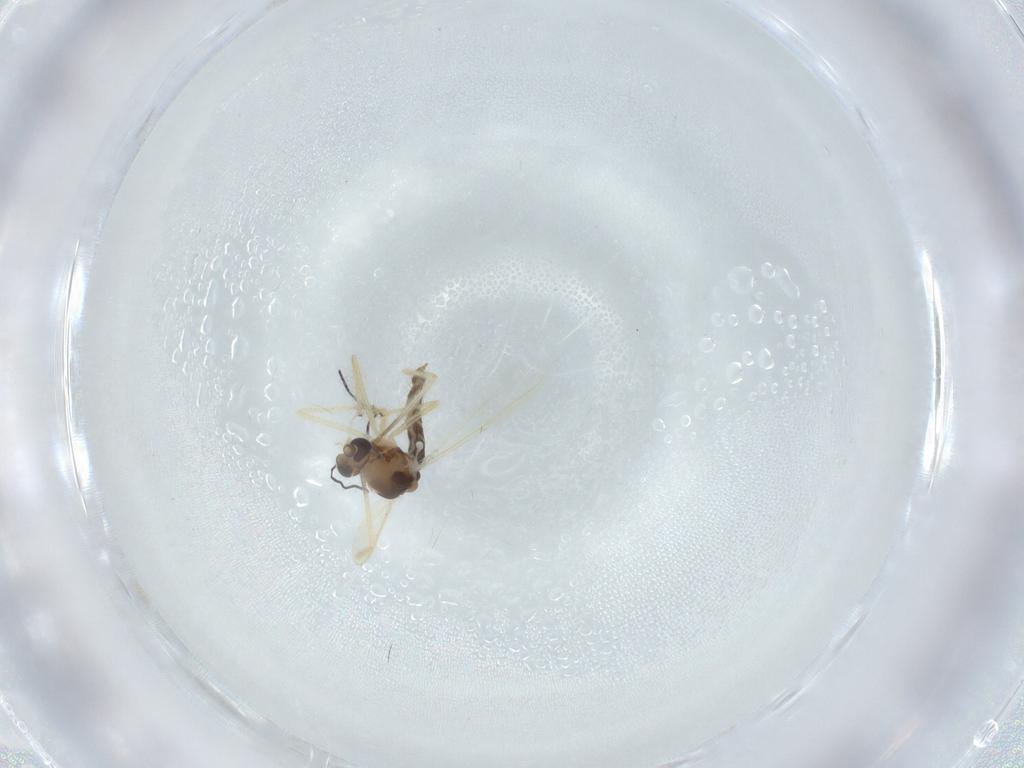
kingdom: Animalia
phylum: Arthropoda
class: Insecta
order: Diptera
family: Chironomidae
